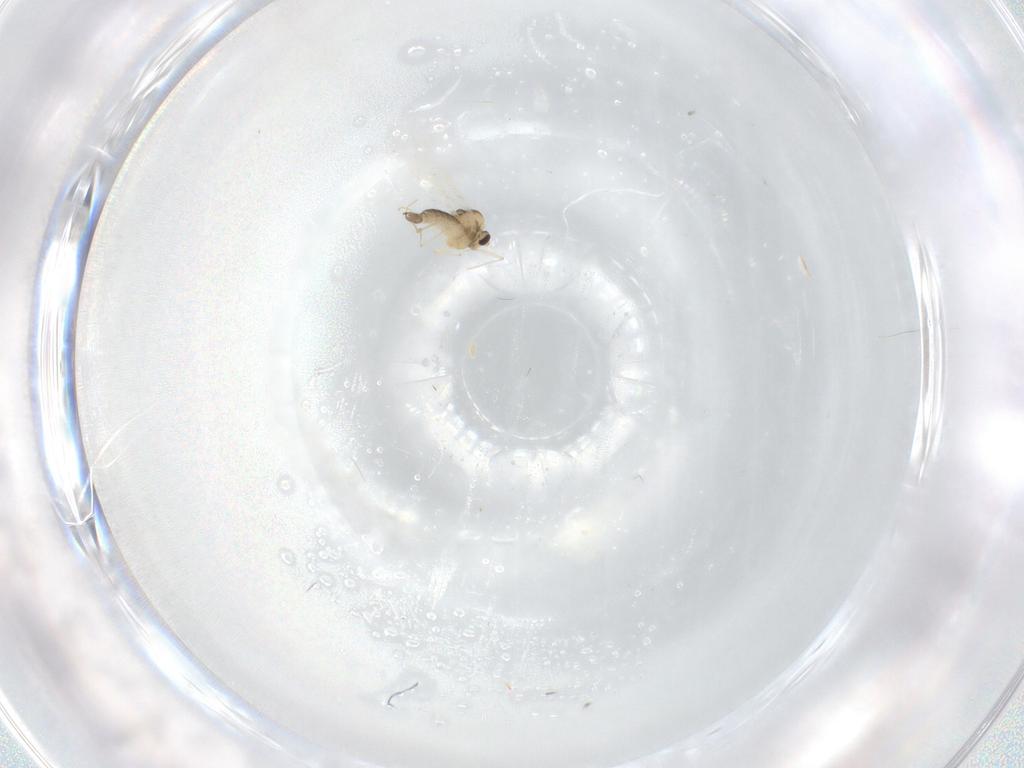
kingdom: Animalia
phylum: Arthropoda
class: Insecta
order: Diptera
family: Chironomidae
